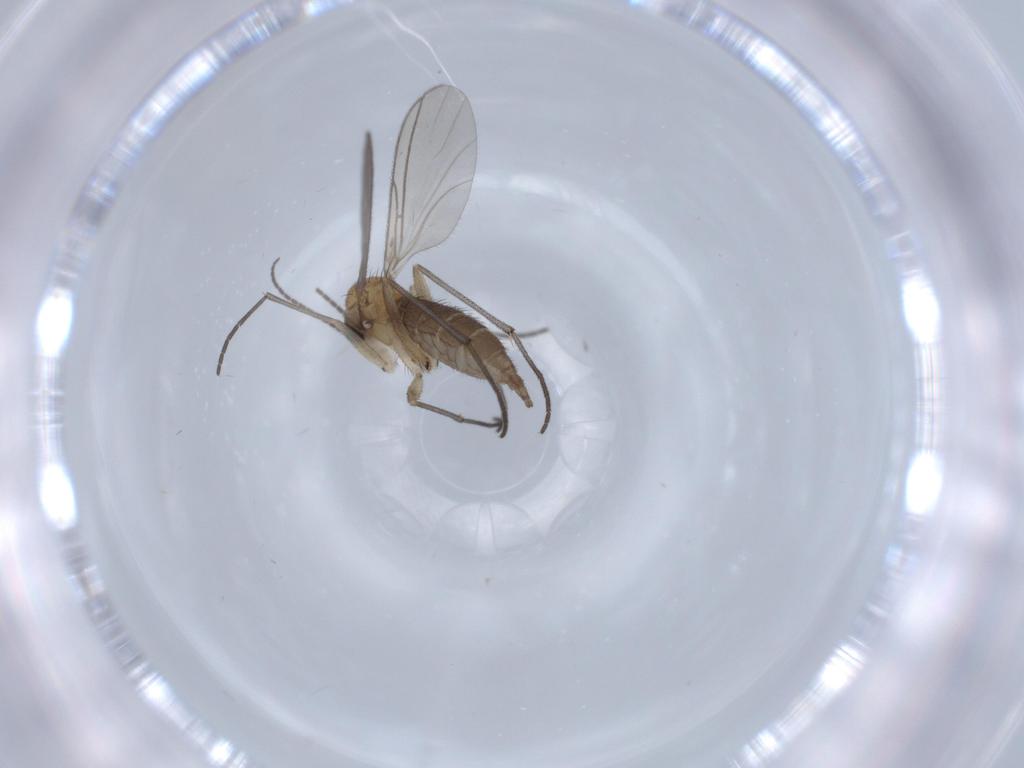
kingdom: Animalia
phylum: Arthropoda
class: Insecta
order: Diptera
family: Sciaridae
